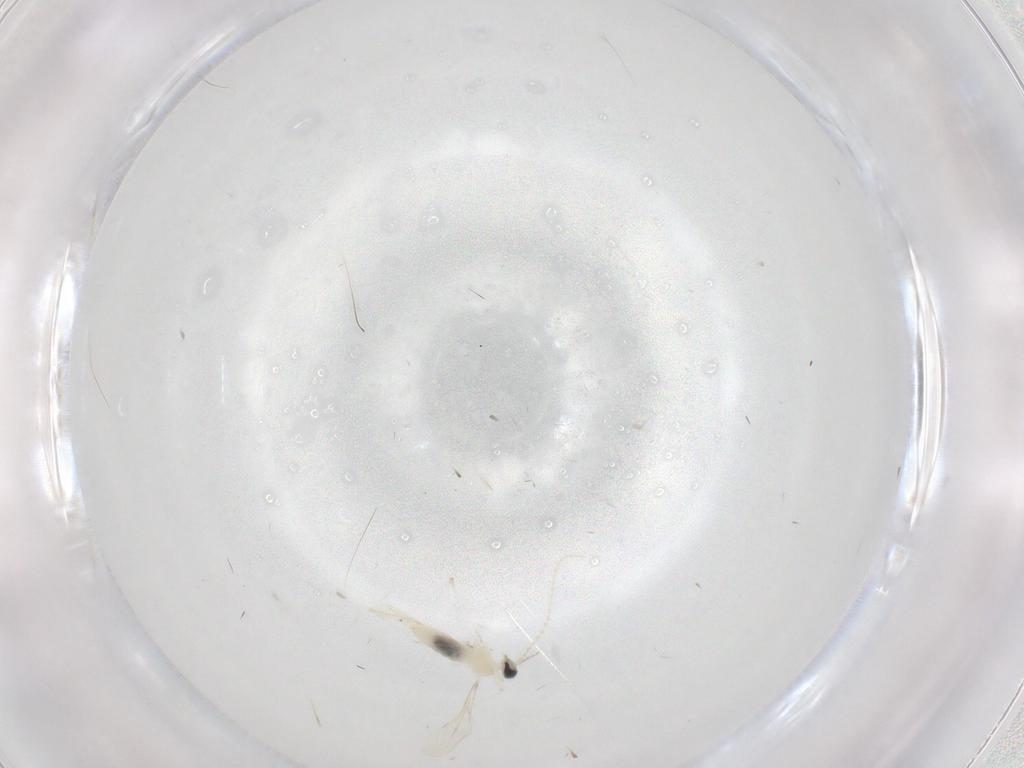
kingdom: Animalia
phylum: Arthropoda
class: Insecta
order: Diptera
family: Cecidomyiidae
